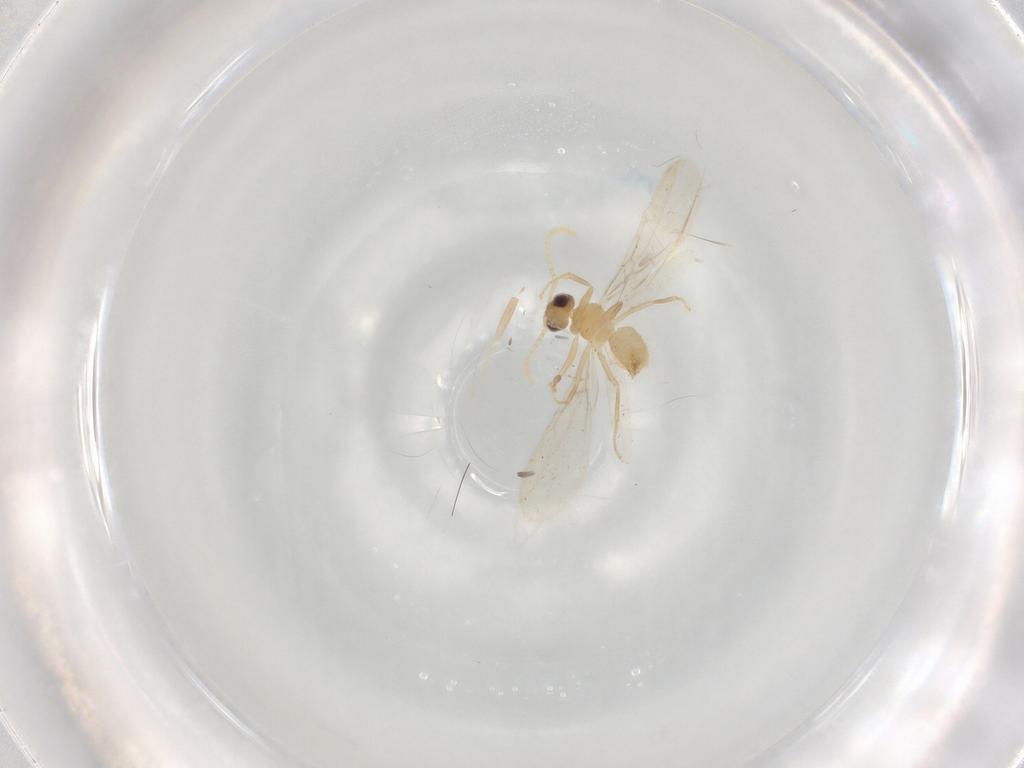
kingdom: Animalia
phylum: Arthropoda
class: Insecta
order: Hymenoptera
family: Formicidae
